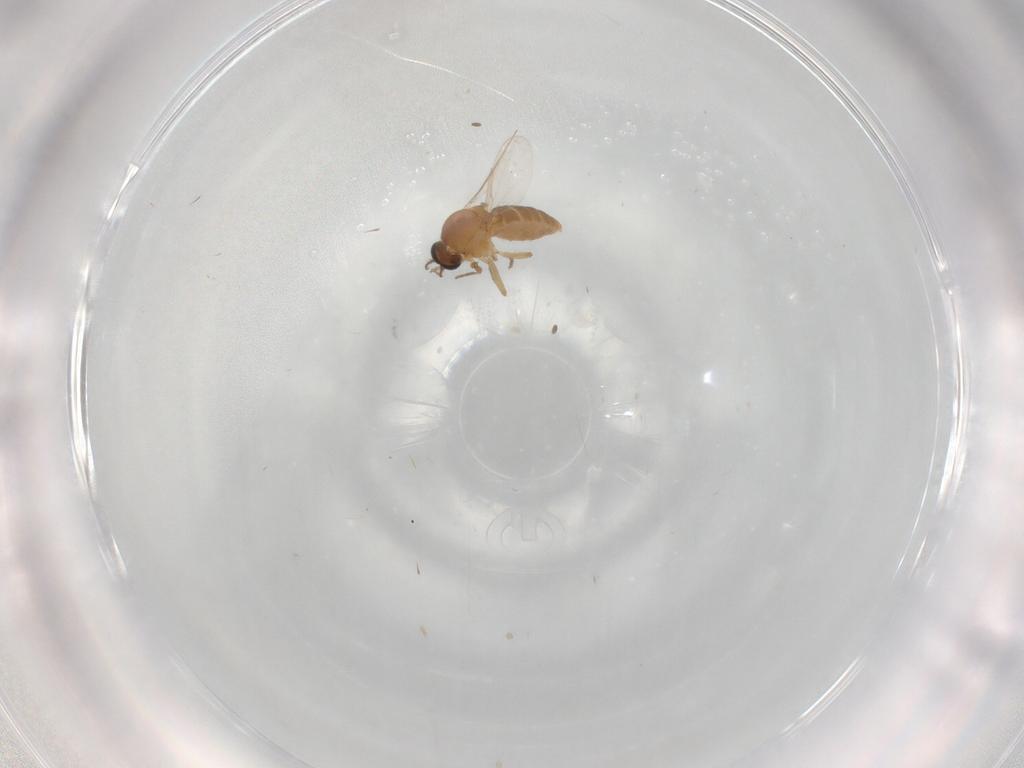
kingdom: Animalia
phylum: Arthropoda
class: Insecta
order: Diptera
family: Ceratopogonidae
